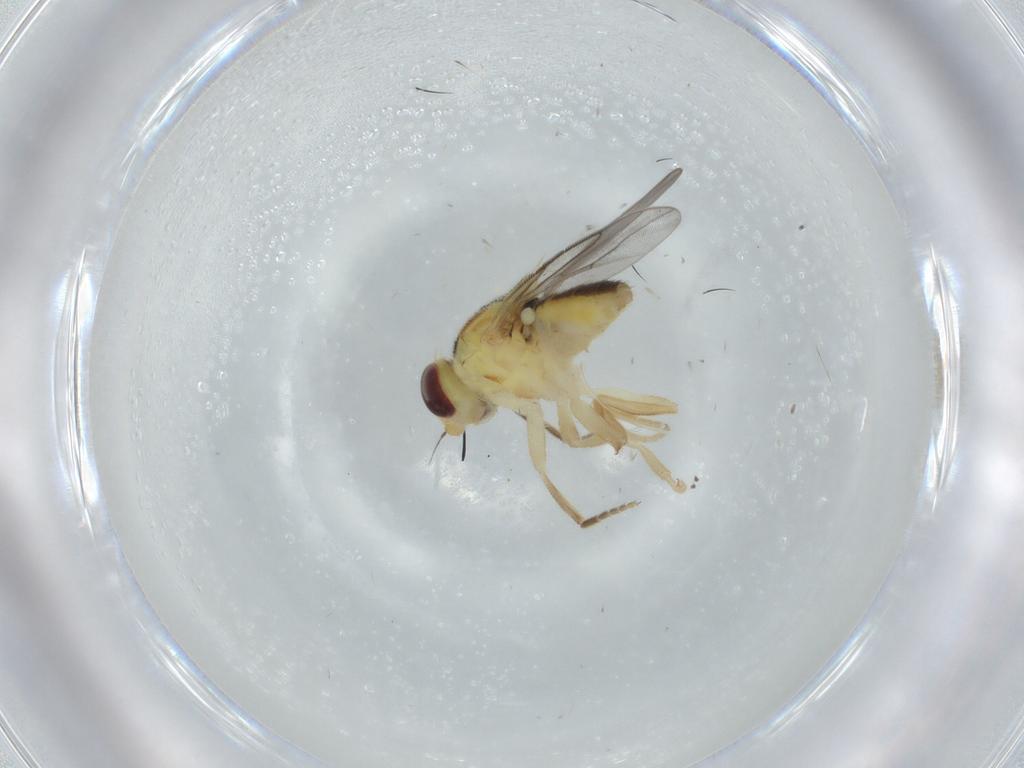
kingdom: Animalia
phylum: Arthropoda
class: Insecta
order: Diptera
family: Chloropidae
